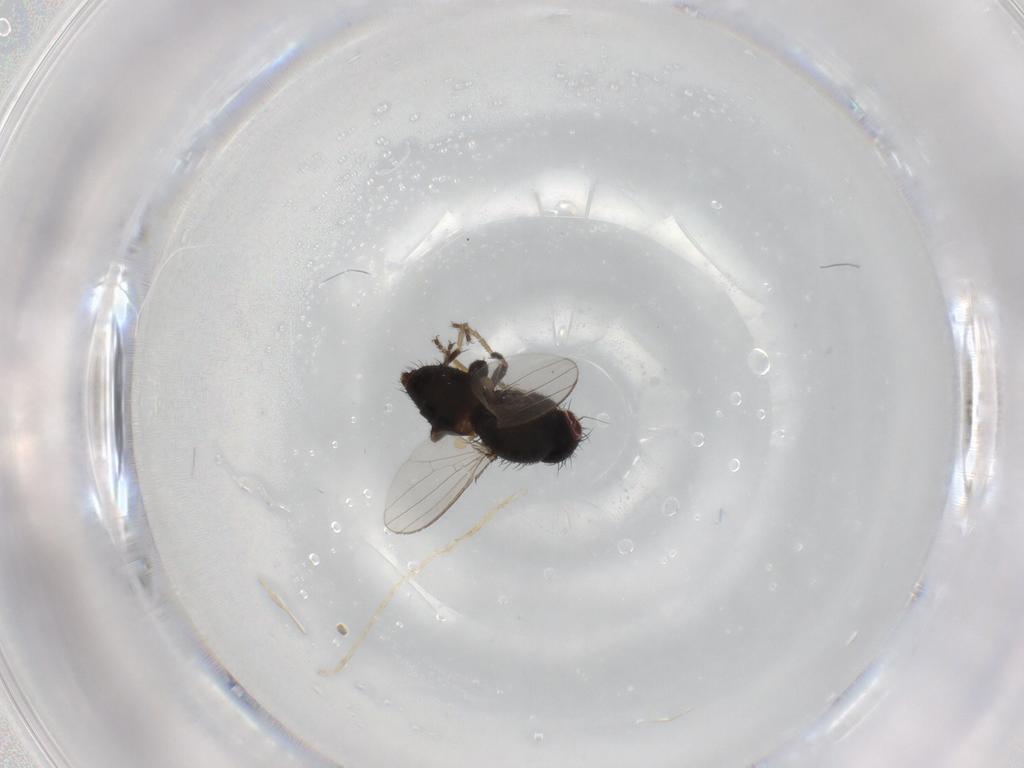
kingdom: Animalia
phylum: Arthropoda
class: Insecta
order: Diptera
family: Milichiidae
